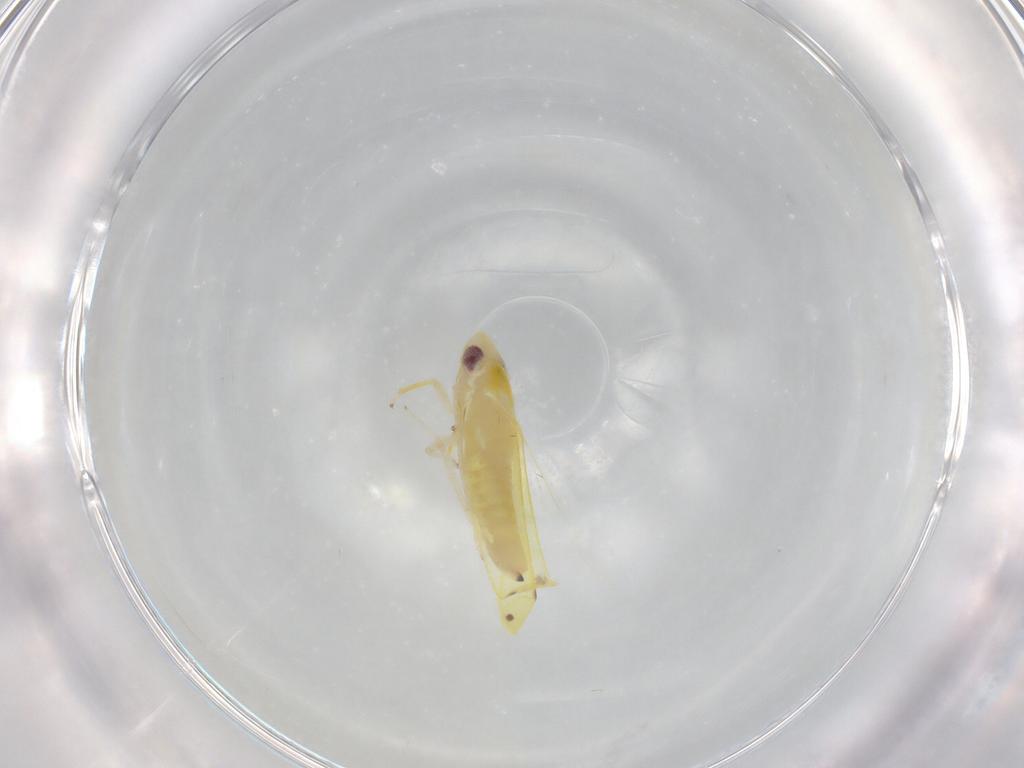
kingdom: Animalia
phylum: Arthropoda
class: Insecta
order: Hemiptera
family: Cicadellidae
